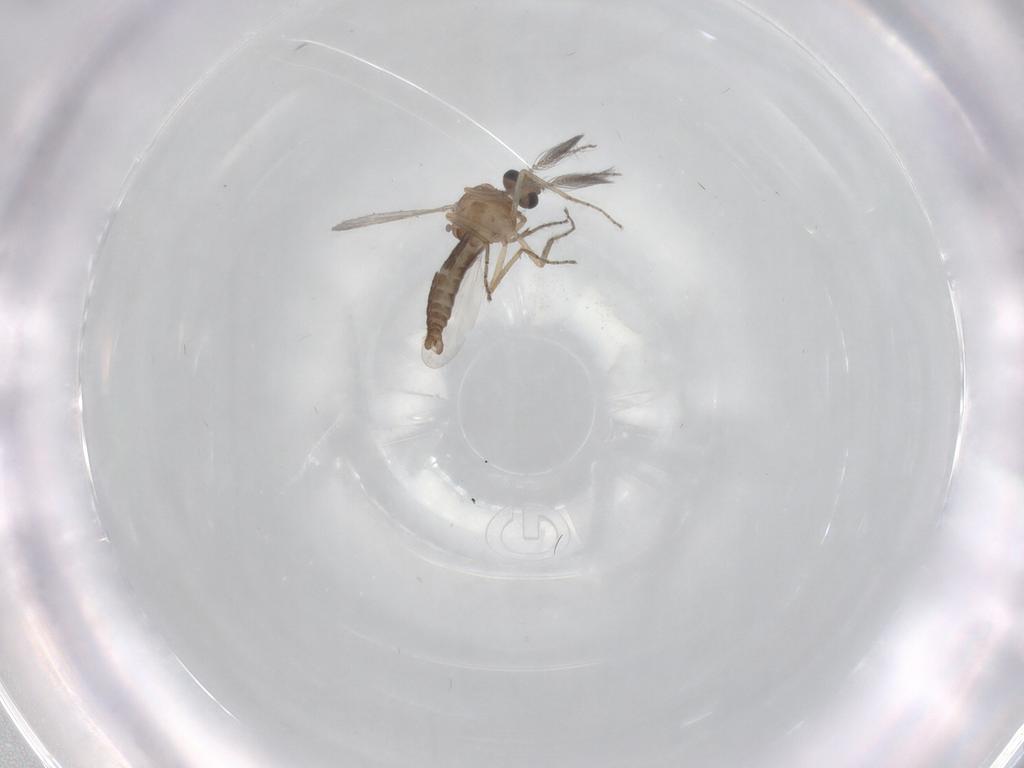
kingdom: Animalia
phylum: Arthropoda
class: Insecta
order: Diptera
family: Cecidomyiidae
